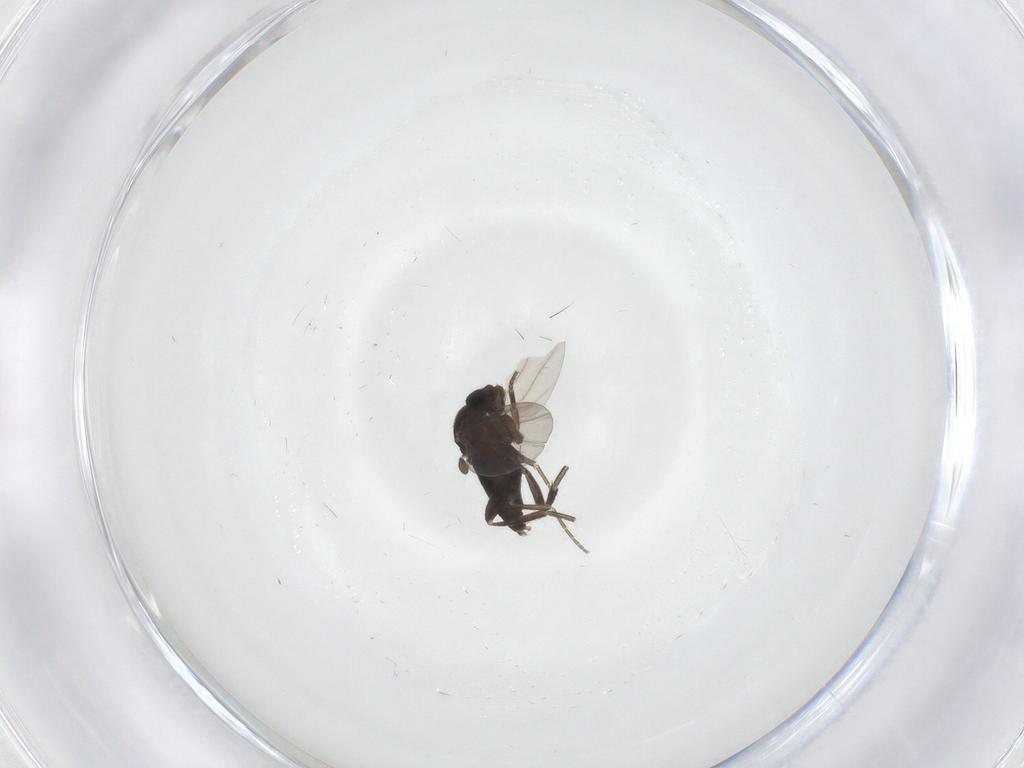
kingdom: Animalia
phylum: Arthropoda
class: Insecta
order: Diptera
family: Phoridae
